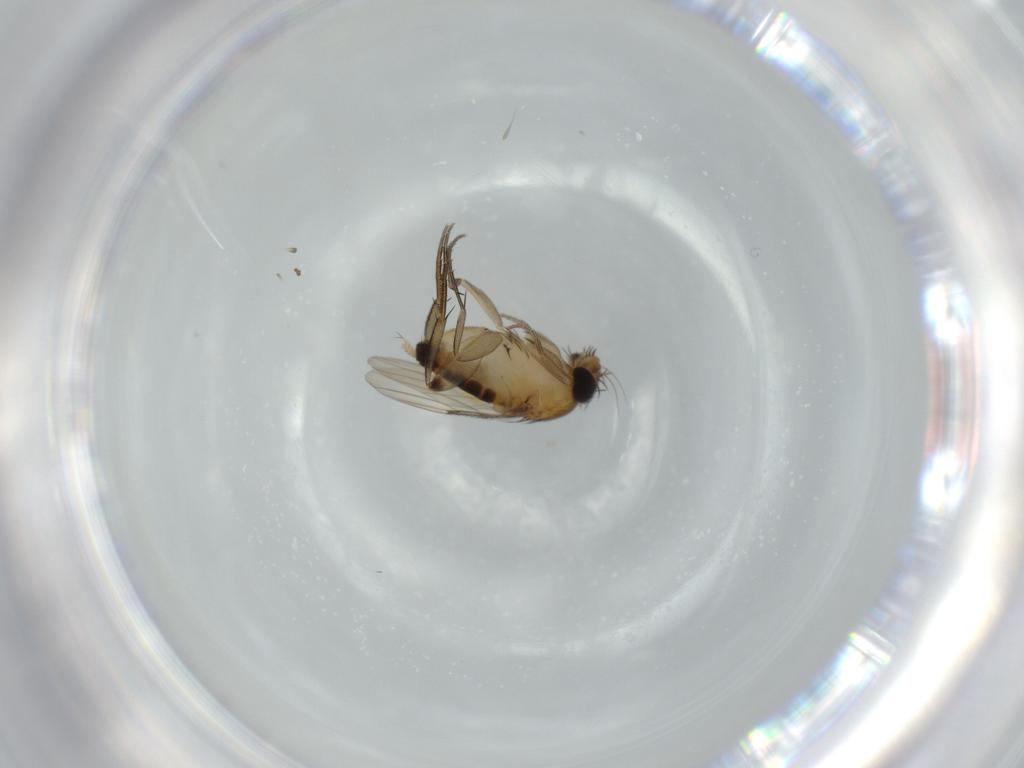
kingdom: Animalia
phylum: Arthropoda
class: Insecta
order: Diptera
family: Phoridae
